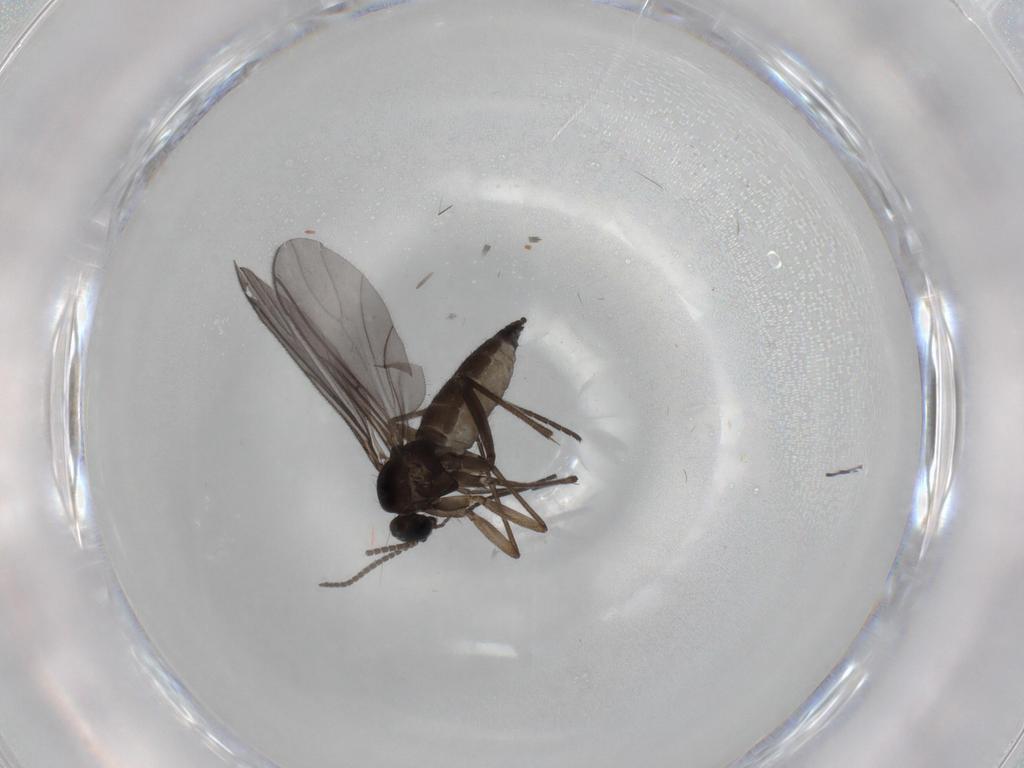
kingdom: Animalia
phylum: Arthropoda
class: Insecta
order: Diptera
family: Sciaridae
